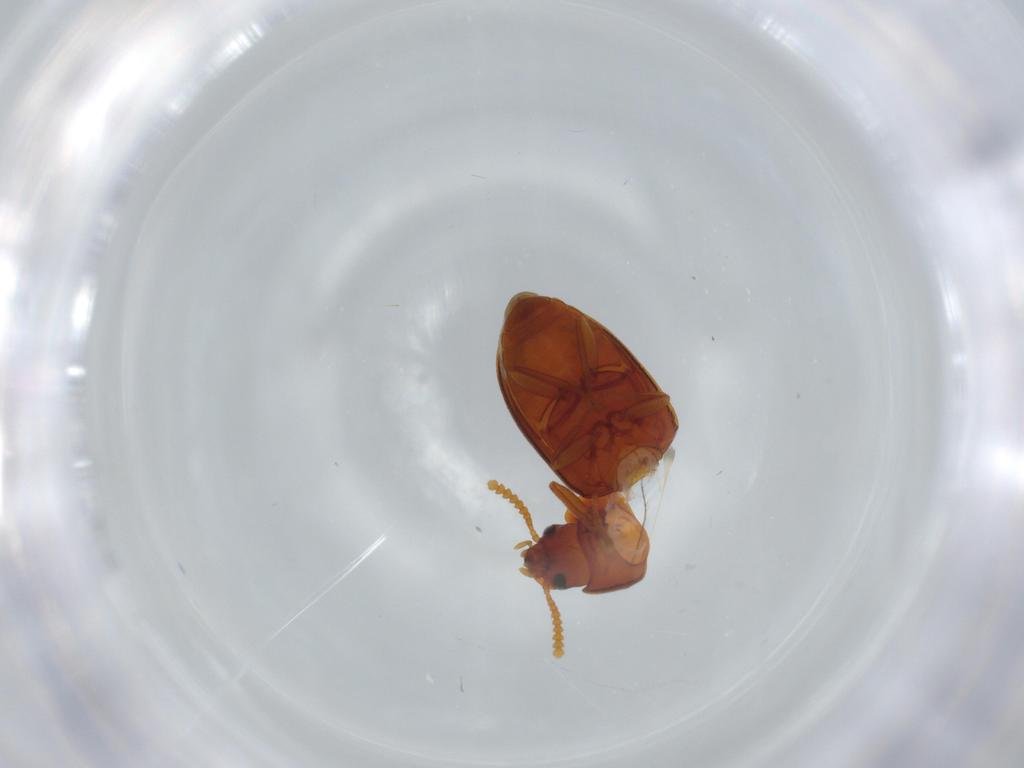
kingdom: Animalia
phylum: Arthropoda
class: Insecta
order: Coleoptera
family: Tenebrionidae
